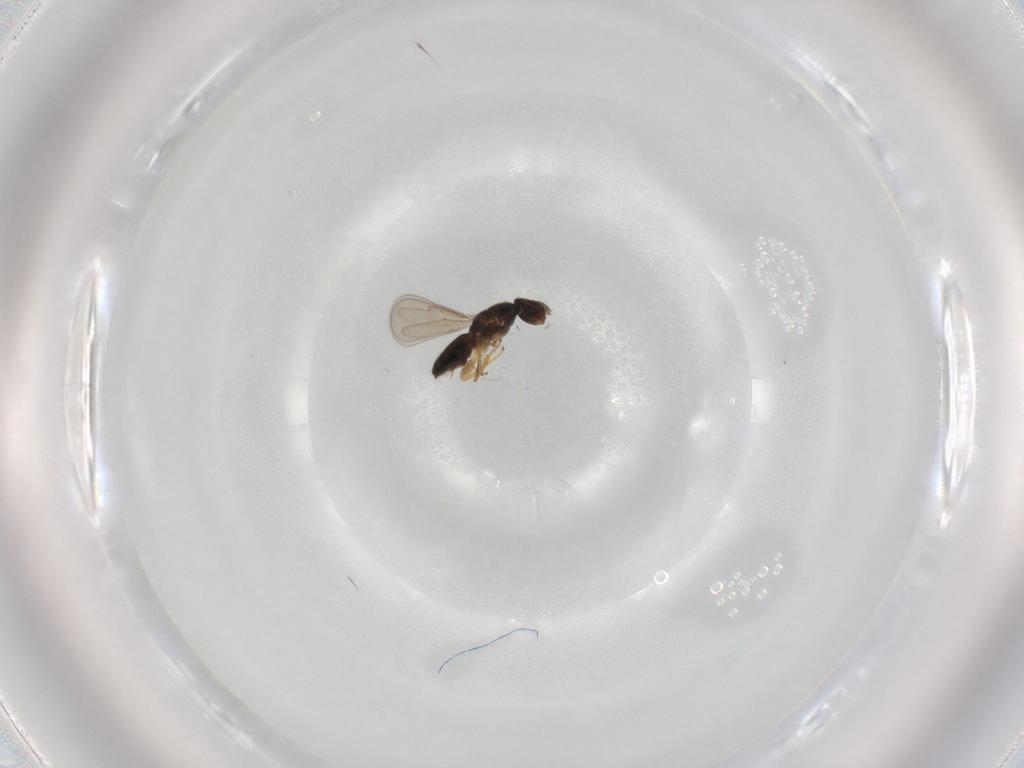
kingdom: Animalia
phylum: Arthropoda
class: Insecta
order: Hymenoptera
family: Eulophidae
